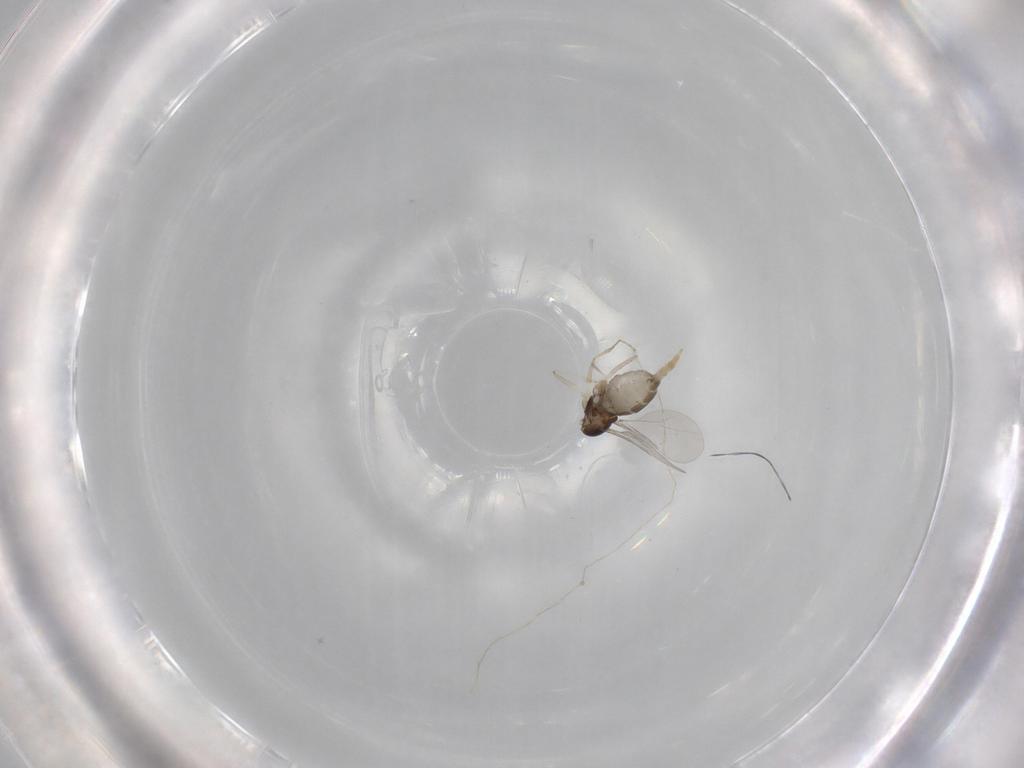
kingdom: Animalia
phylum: Arthropoda
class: Insecta
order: Diptera
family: Cecidomyiidae
